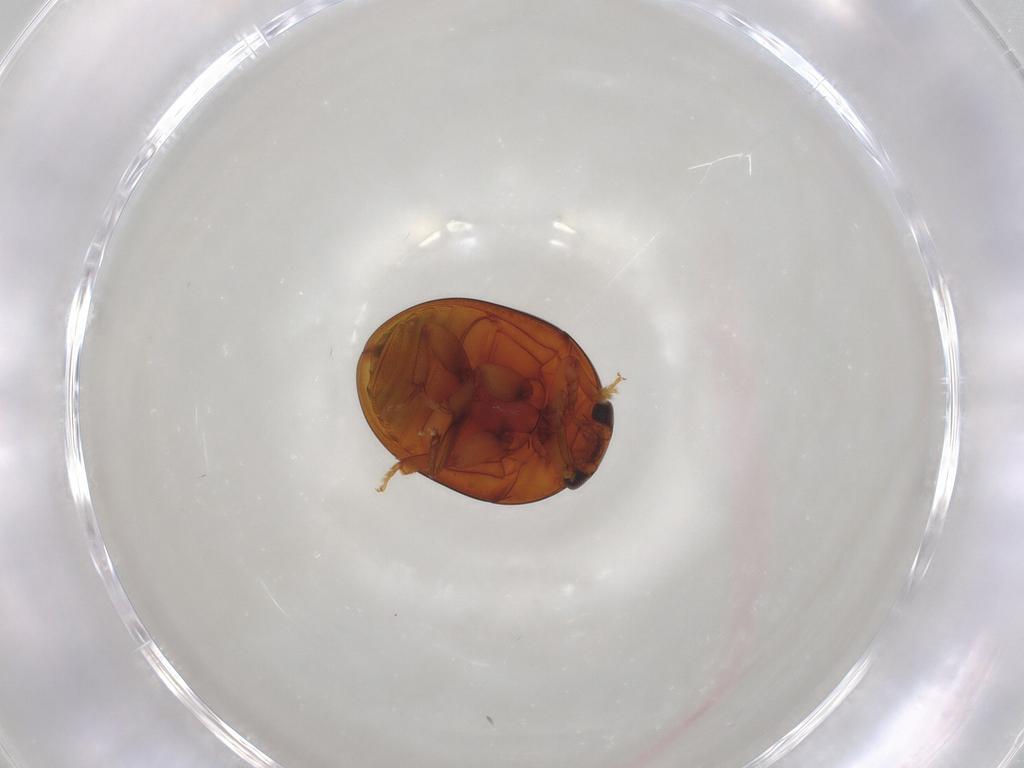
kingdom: Animalia
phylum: Arthropoda
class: Insecta
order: Coleoptera
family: Phalacridae
